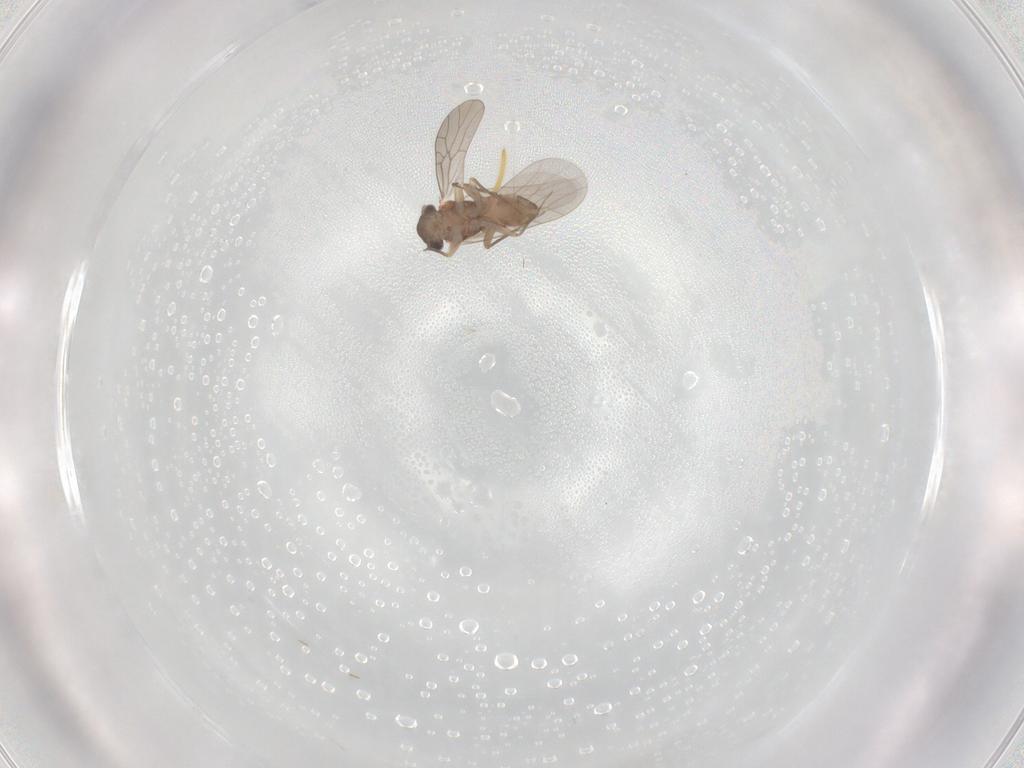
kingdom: Animalia
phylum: Arthropoda
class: Insecta
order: Psocodea
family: Lepidopsocidae
